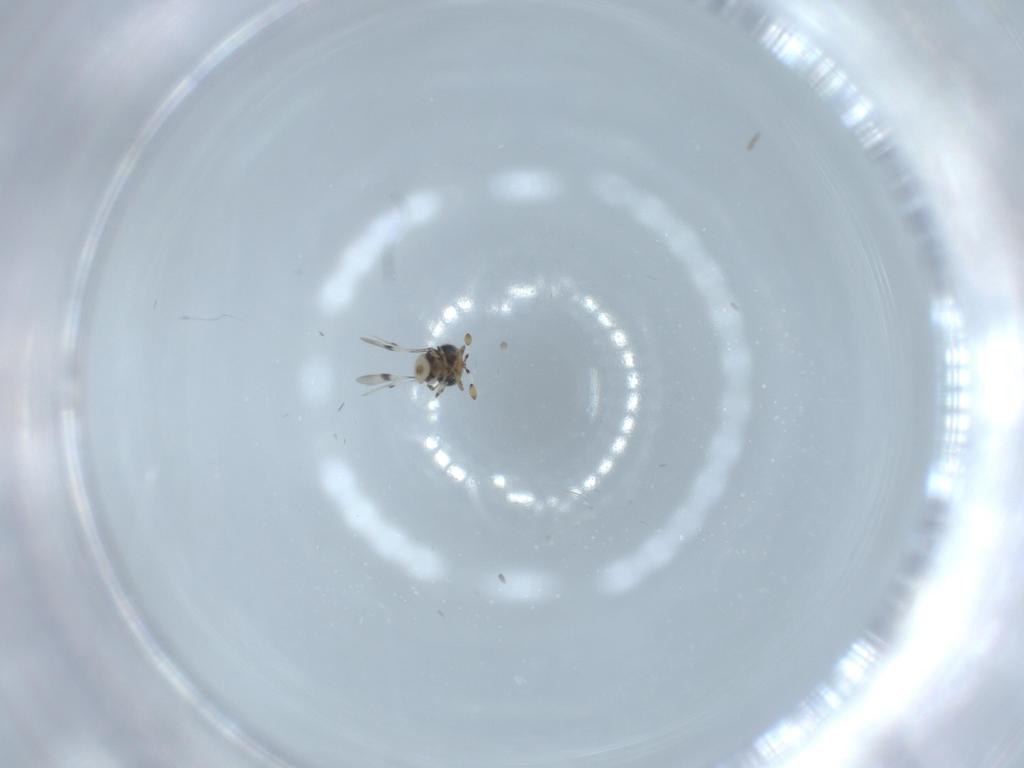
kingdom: Animalia
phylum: Arthropoda
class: Insecta
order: Hymenoptera
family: Scelionidae
